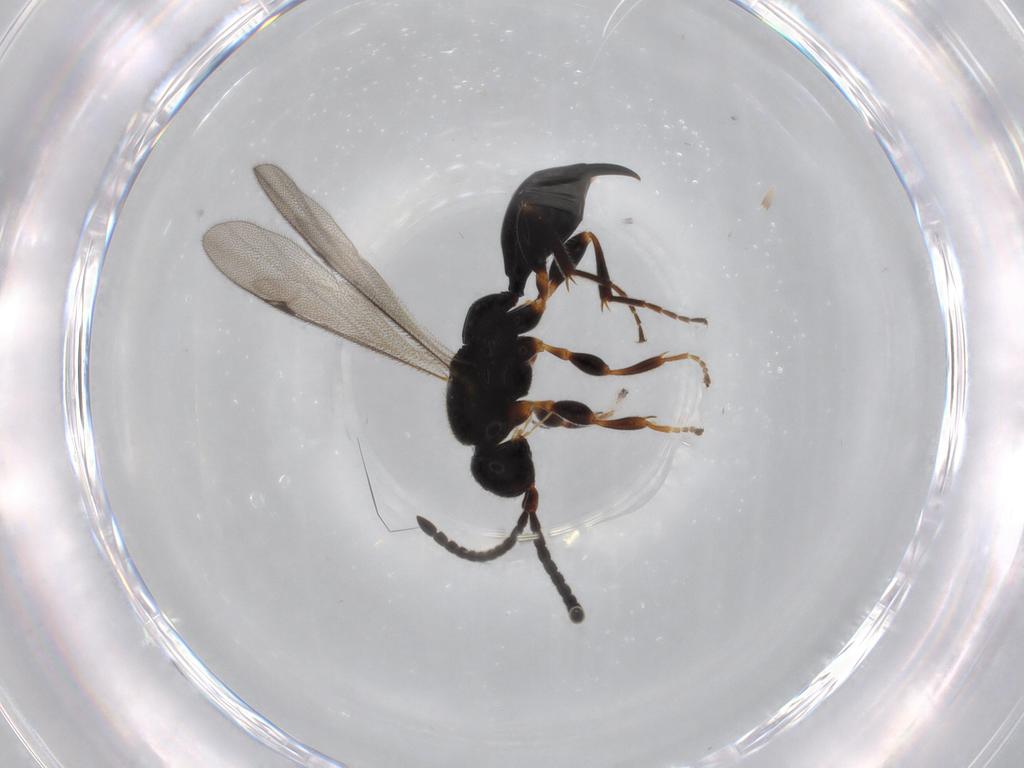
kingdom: Animalia
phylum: Arthropoda
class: Insecta
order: Hymenoptera
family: Proctotrupidae
